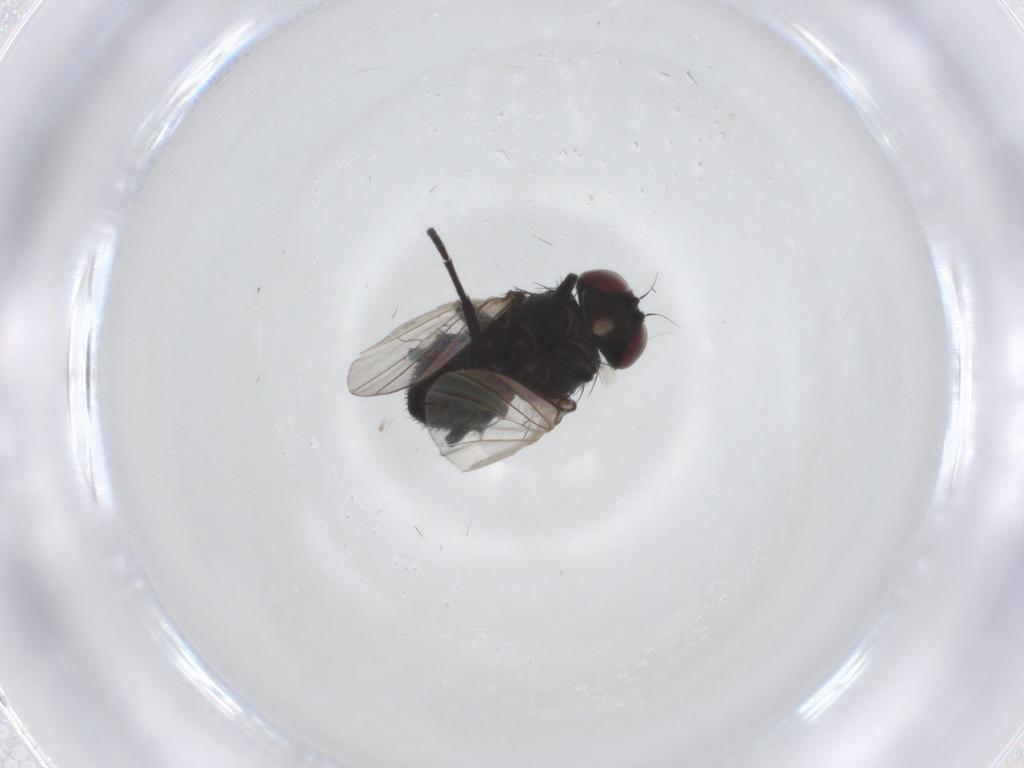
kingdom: Animalia
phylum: Arthropoda
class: Insecta
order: Diptera
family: Agromyzidae
